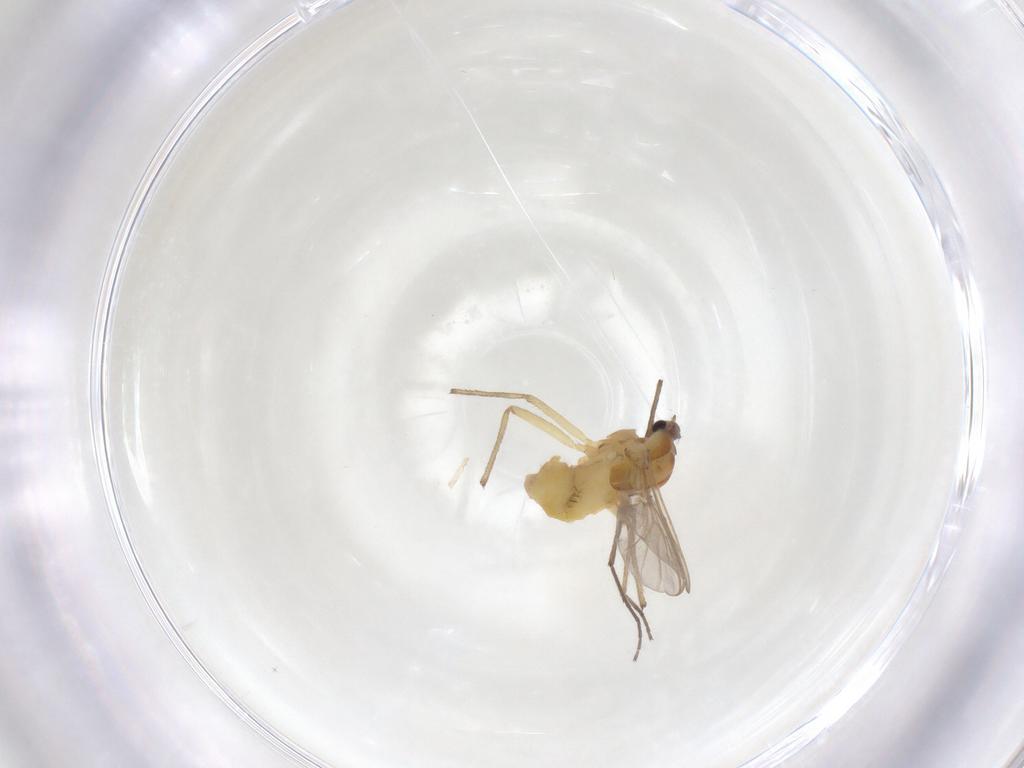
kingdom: Animalia
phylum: Arthropoda
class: Insecta
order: Diptera
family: Chironomidae
